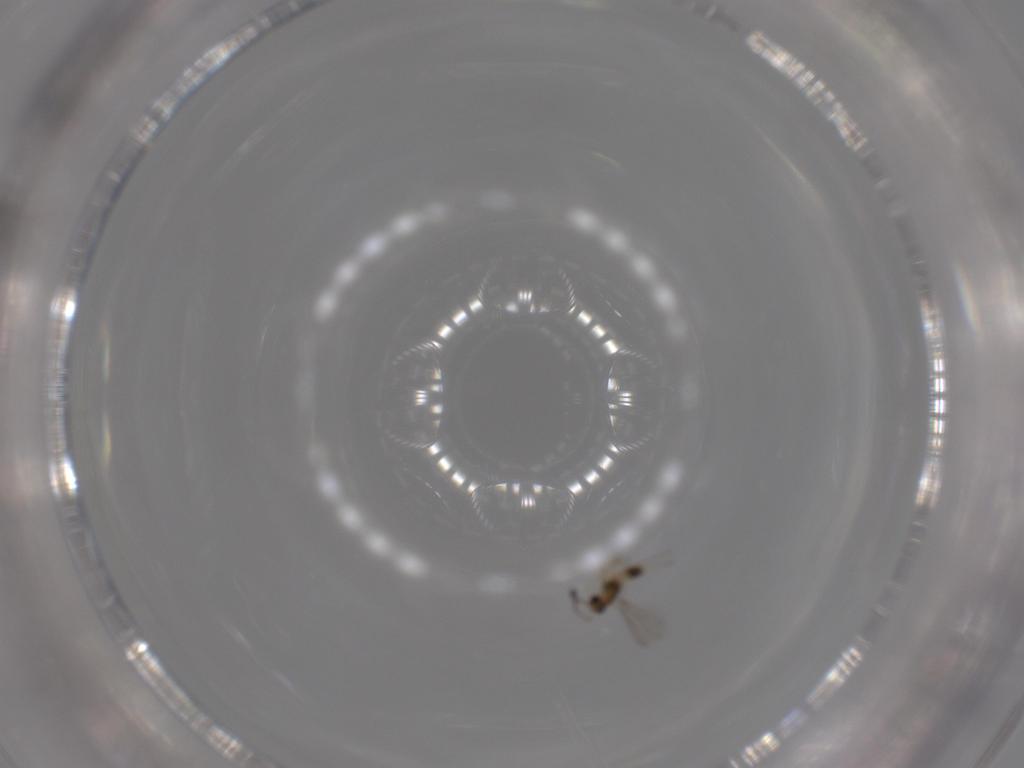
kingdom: Animalia
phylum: Arthropoda
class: Insecta
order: Hymenoptera
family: Mymaridae
